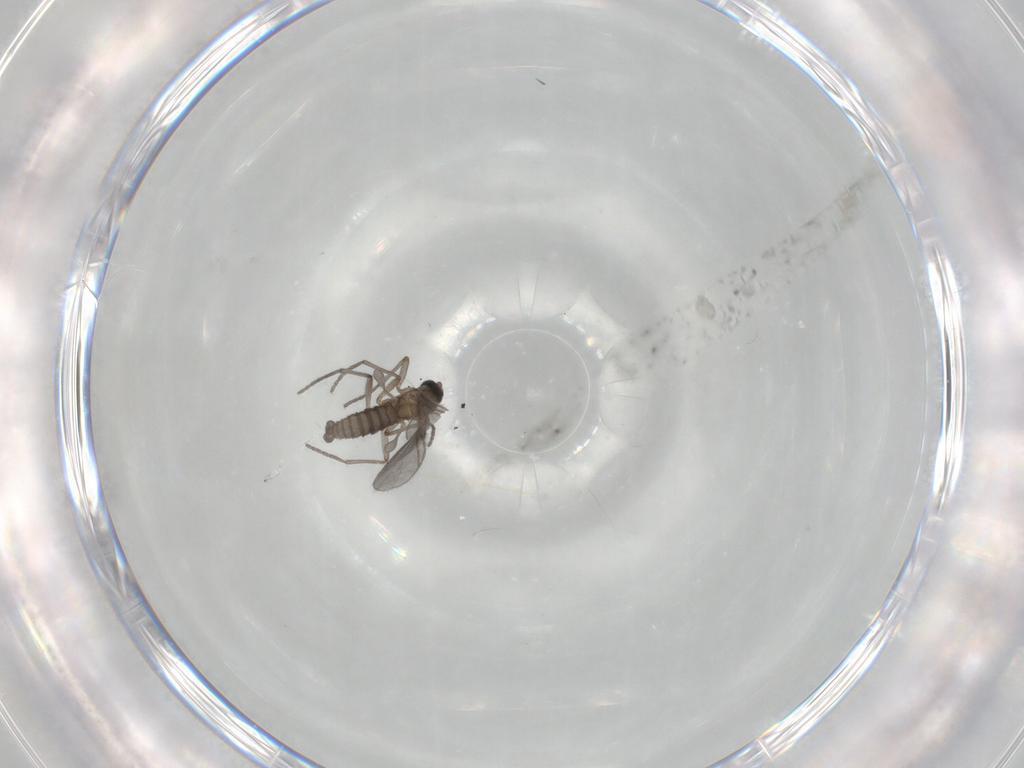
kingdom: Animalia
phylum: Arthropoda
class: Insecta
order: Diptera
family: Sciaridae
